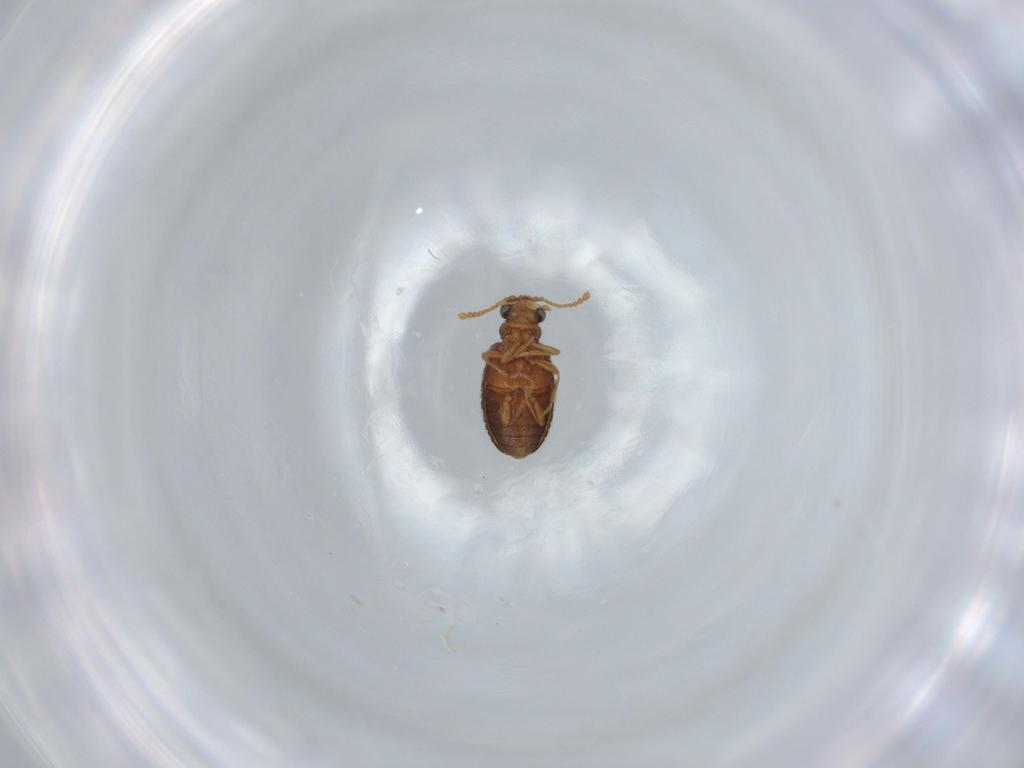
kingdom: Animalia
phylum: Arthropoda
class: Insecta
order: Coleoptera
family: Aderidae
